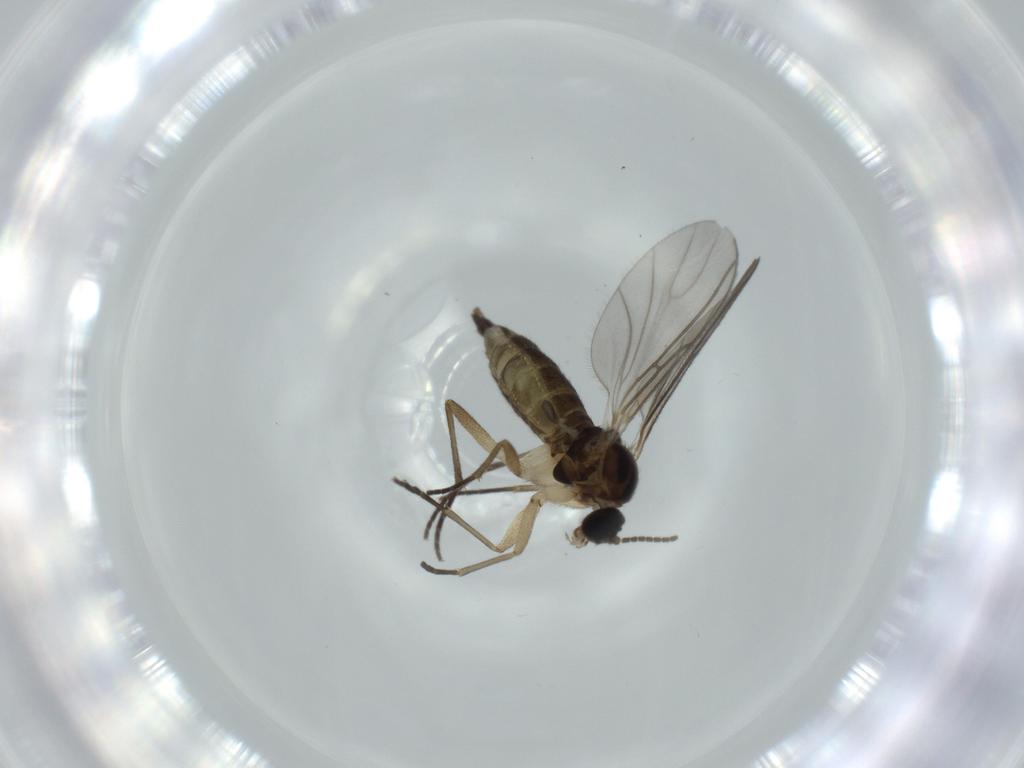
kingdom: Animalia
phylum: Arthropoda
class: Insecta
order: Diptera
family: Sciaridae
